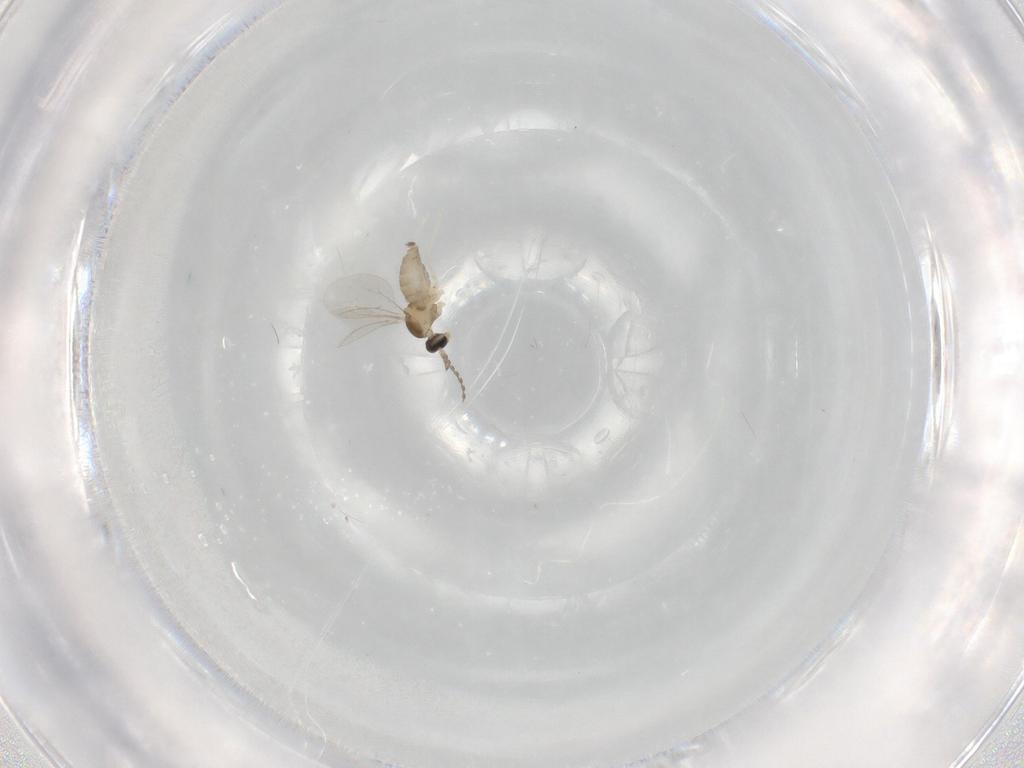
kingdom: Animalia
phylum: Arthropoda
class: Insecta
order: Diptera
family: Cecidomyiidae
